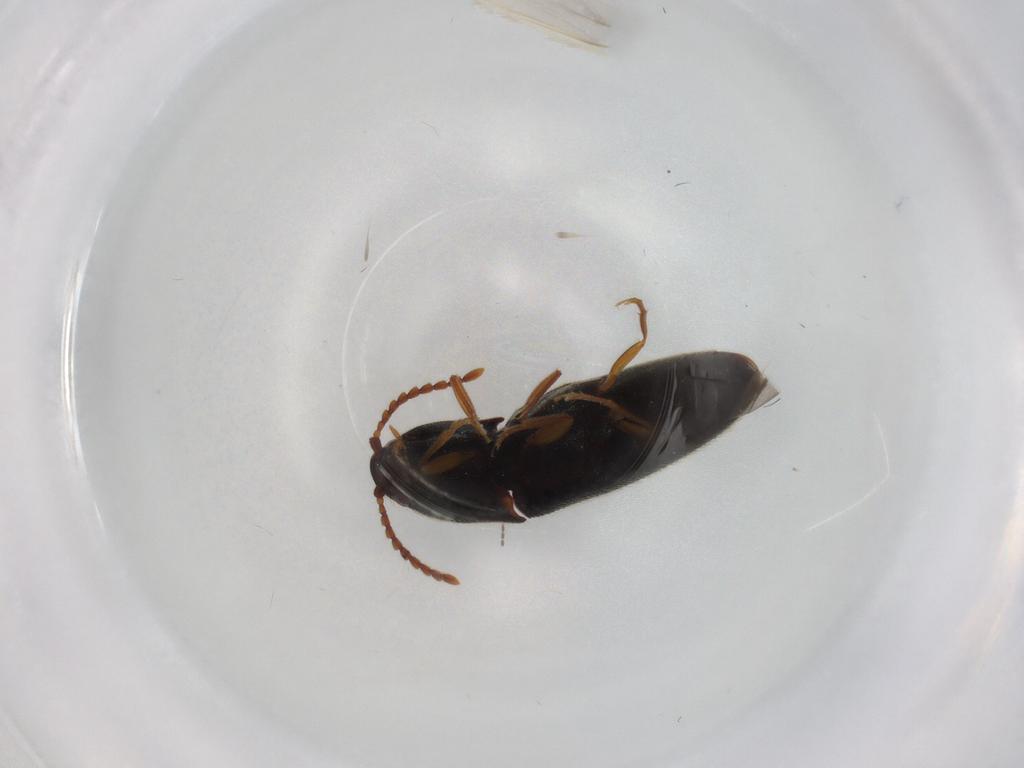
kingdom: Animalia
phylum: Arthropoda
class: Insecta
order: Coleoptera
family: Elateridae
